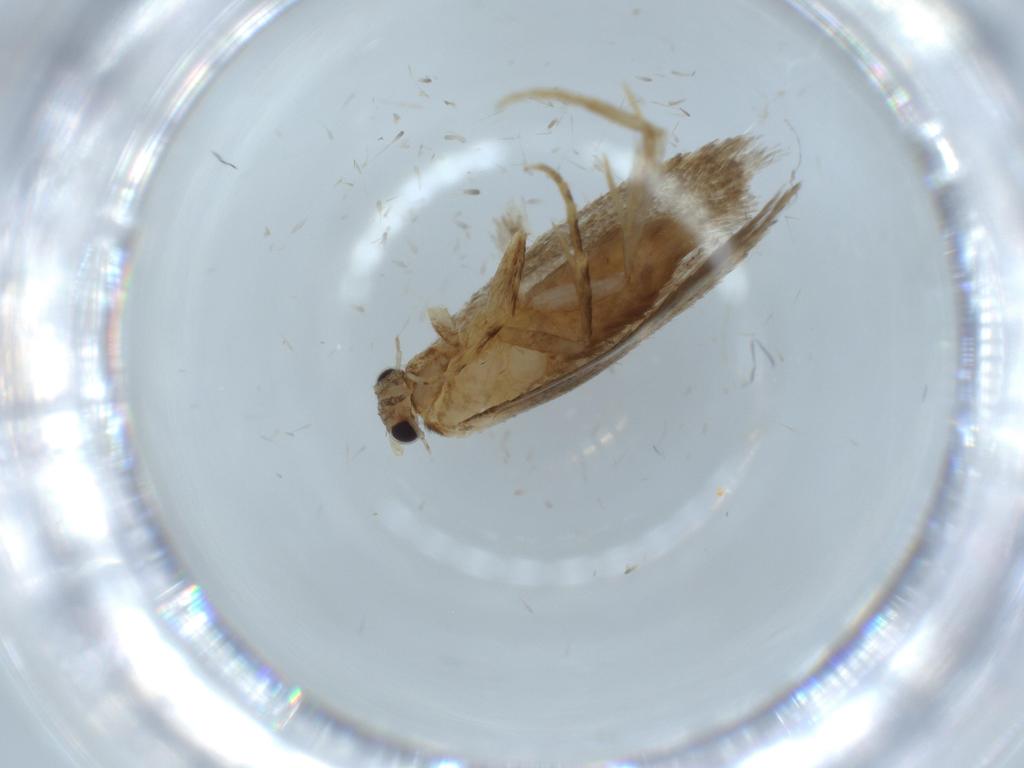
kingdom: Animalia
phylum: Arthropoda
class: Insecta
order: Lepidoptera
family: Tineidae
